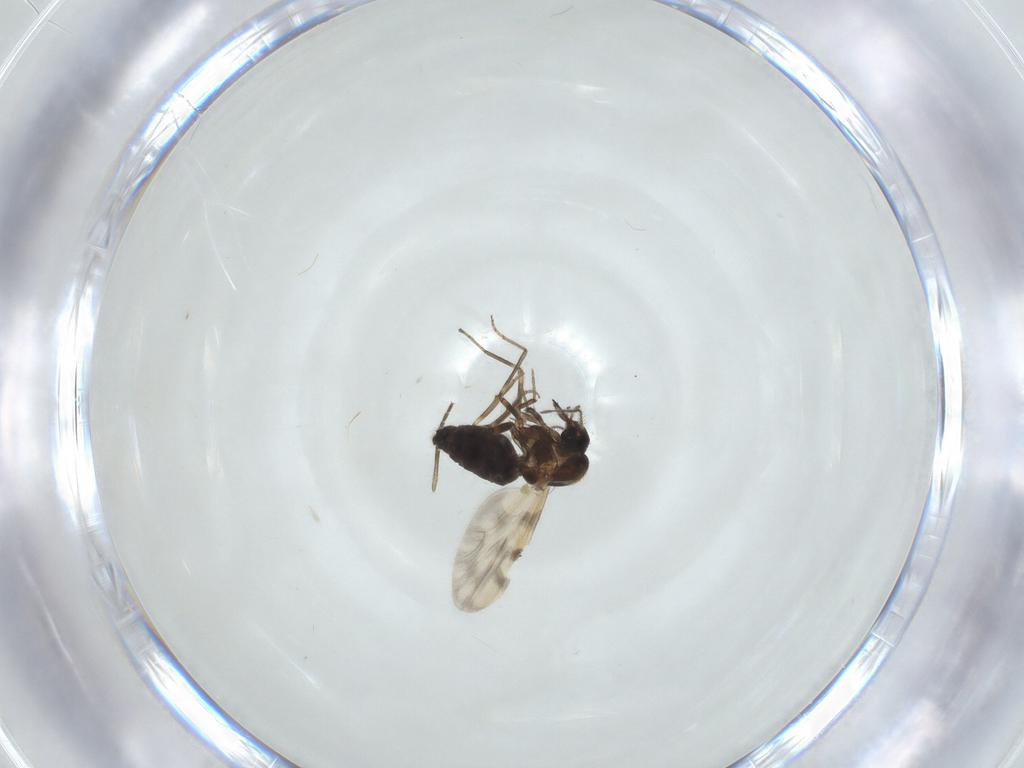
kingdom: Animalia
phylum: Arthropoda
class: Insecta
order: Diptera
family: Ceratopogonidae
